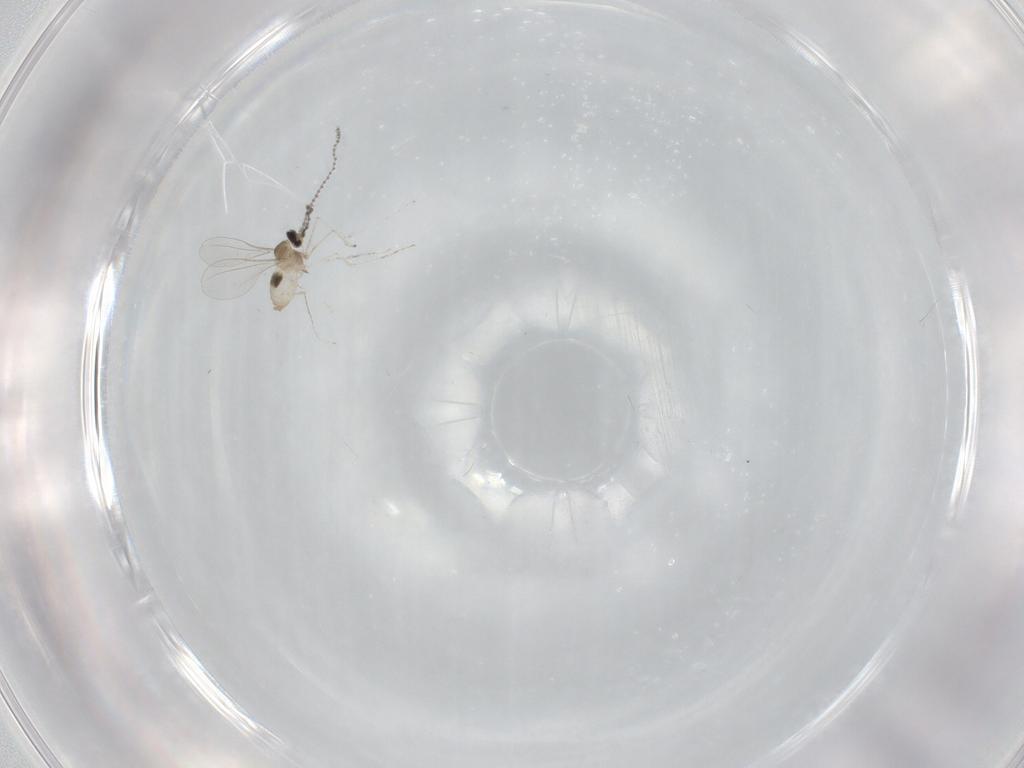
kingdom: Animalia
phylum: Arthropoda
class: Insecta
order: Diptera
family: Cecidomyiidae
